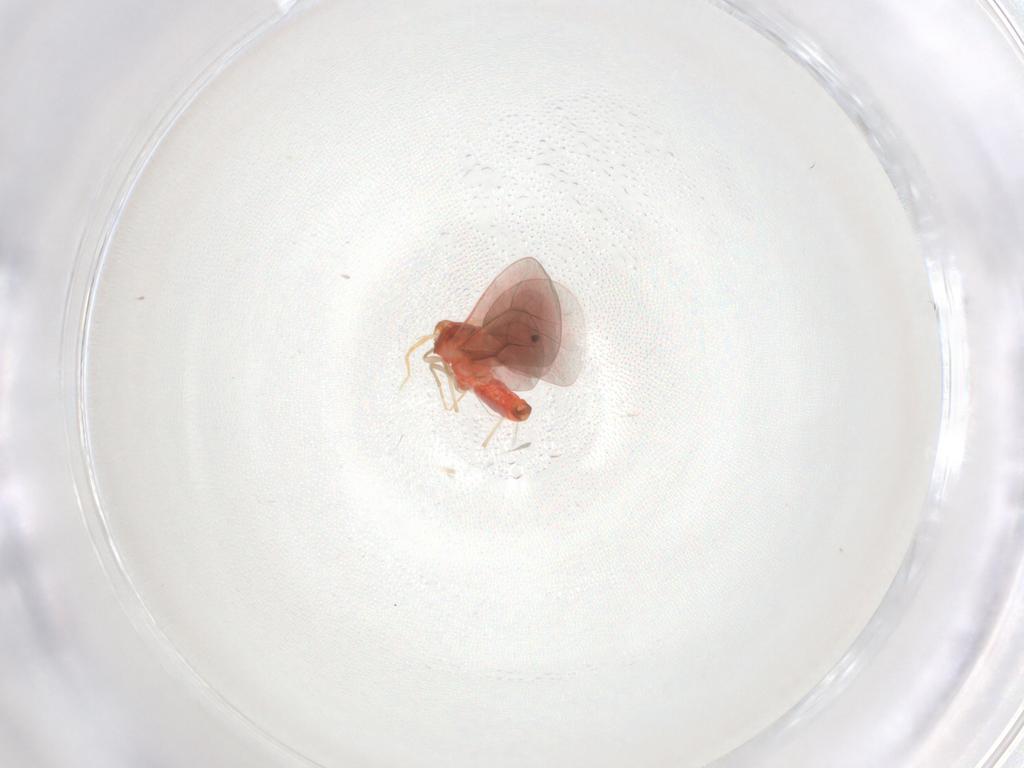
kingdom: Animalia
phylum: Arthropoda
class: Insecta
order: Hemiptera
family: Aleyrodidae
